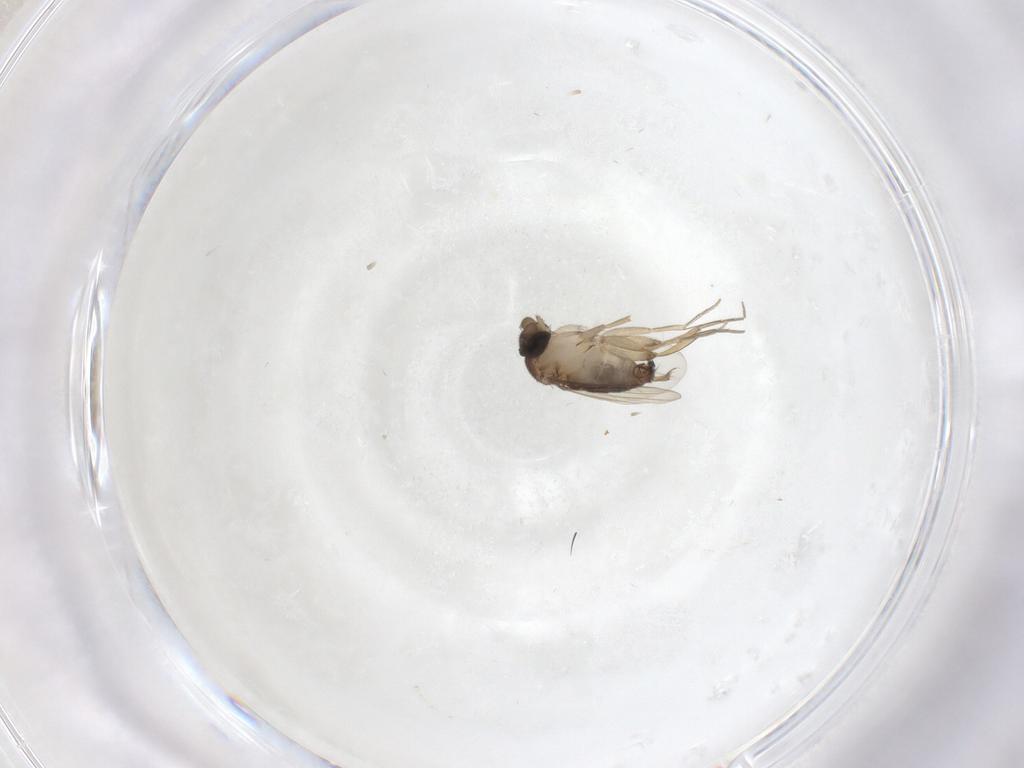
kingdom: Animalia
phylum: Arthropoda
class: Insecta
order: Diptera
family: Phoridae
